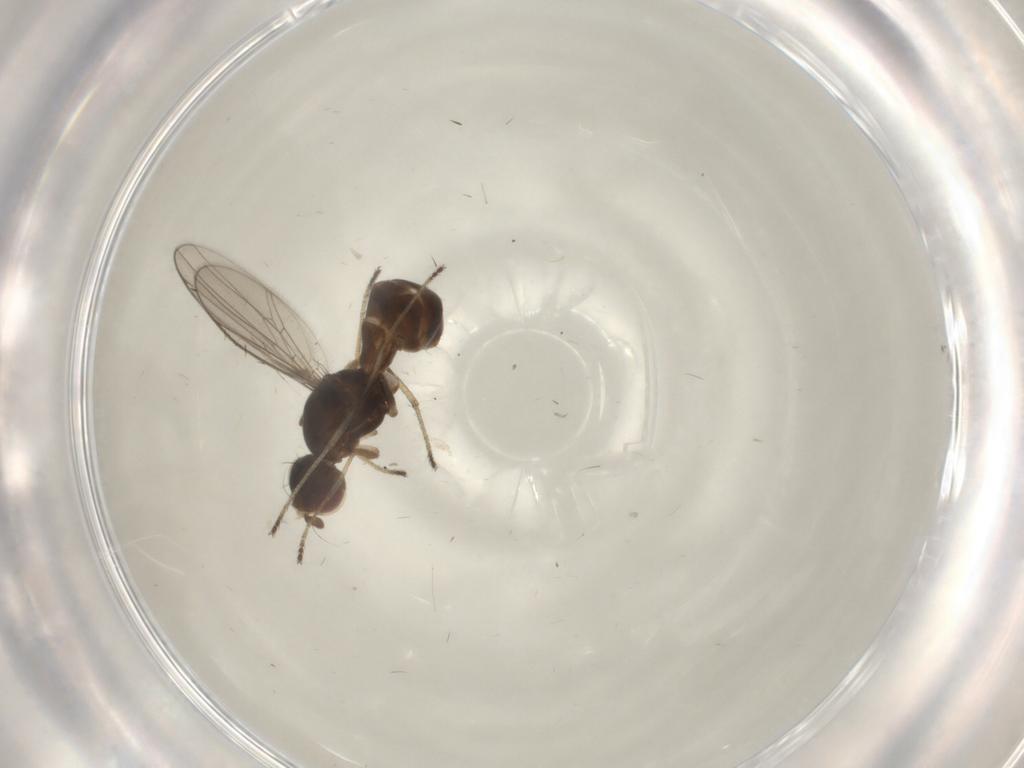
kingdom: Animalia
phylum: Arthropoda
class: Insecta
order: Diptera
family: Sepsidae
